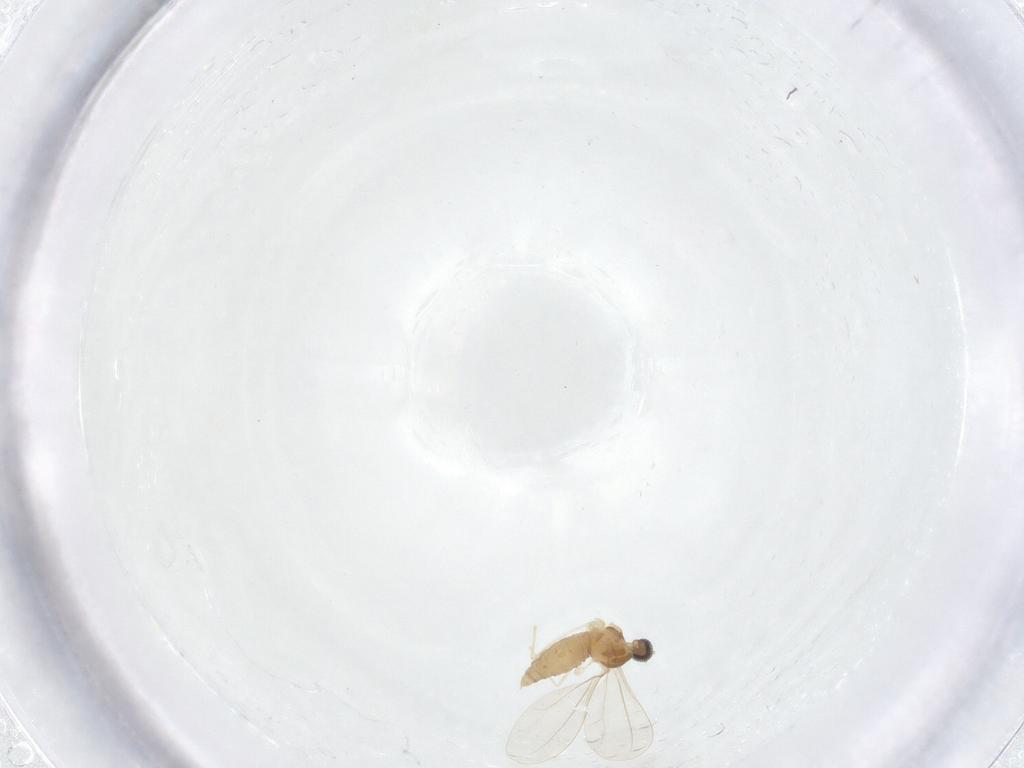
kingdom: Animalia
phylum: Arthropoda
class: Insecta
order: Diptera
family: Cecidomyiidae
